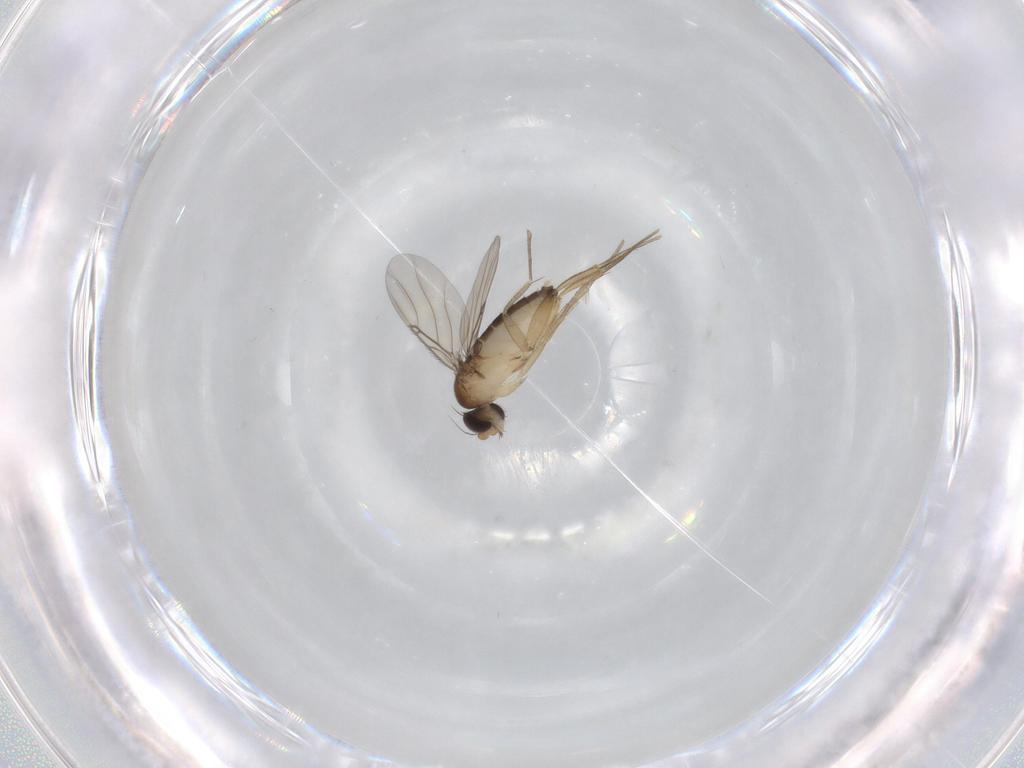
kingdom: Animalia
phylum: Arthropoda
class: Insecta
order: Diptera
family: Phoridae
